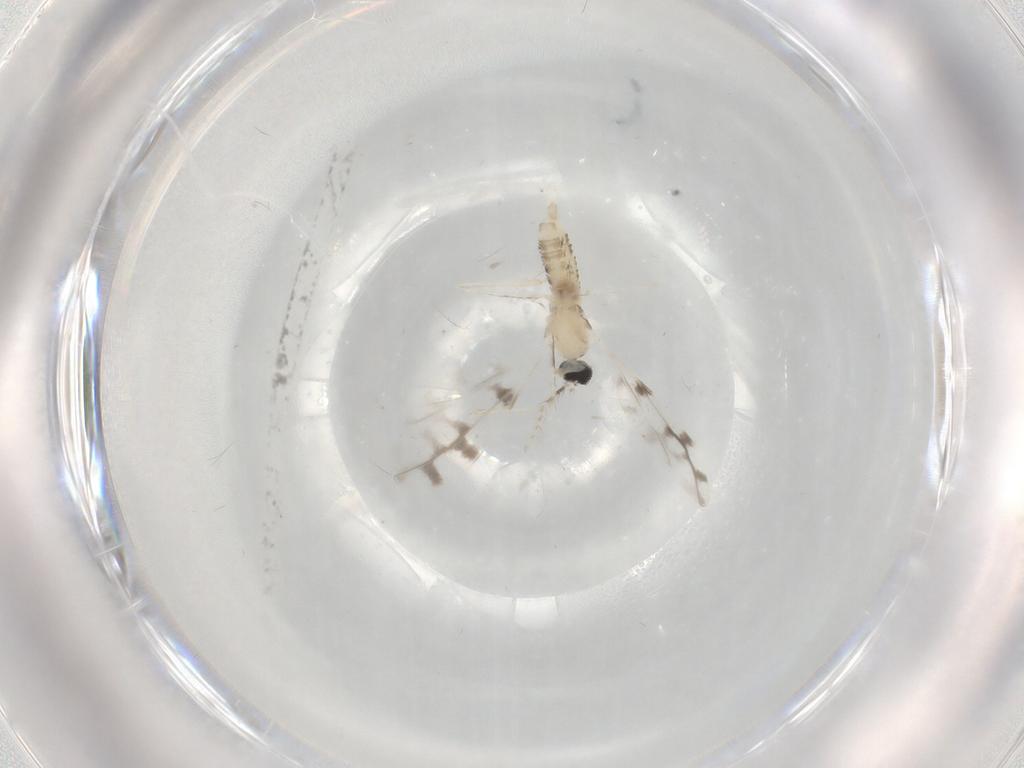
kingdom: Animalia
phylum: Arthropoda
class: Insecta
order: Diptera
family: Cecidomyiidae
